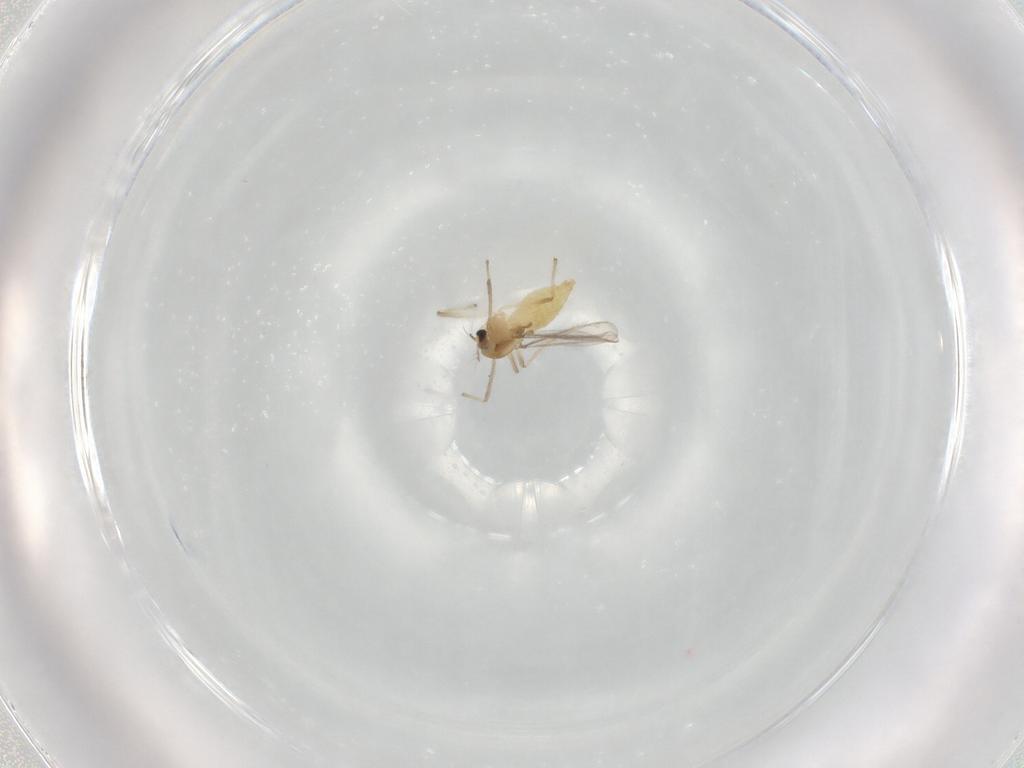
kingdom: Animalia
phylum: Arthropoda
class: Insecta
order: Diptera
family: Chironomidae
